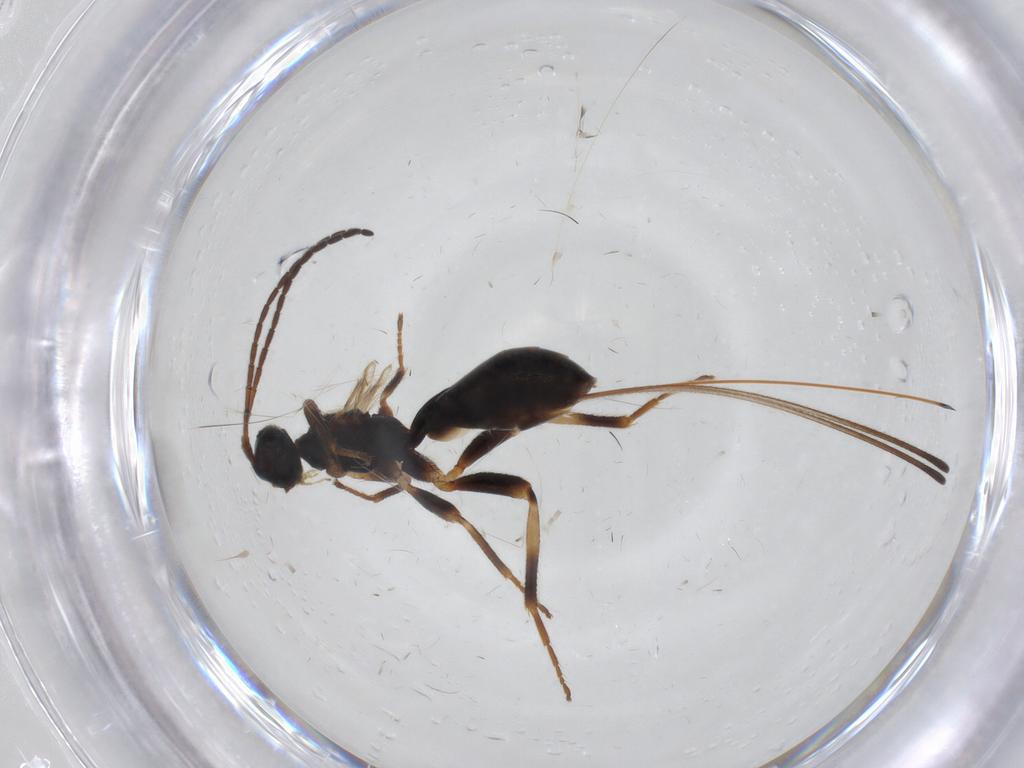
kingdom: Animalia
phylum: Arthropoda
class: Insecta
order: Hymenoptera
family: Braconidae
